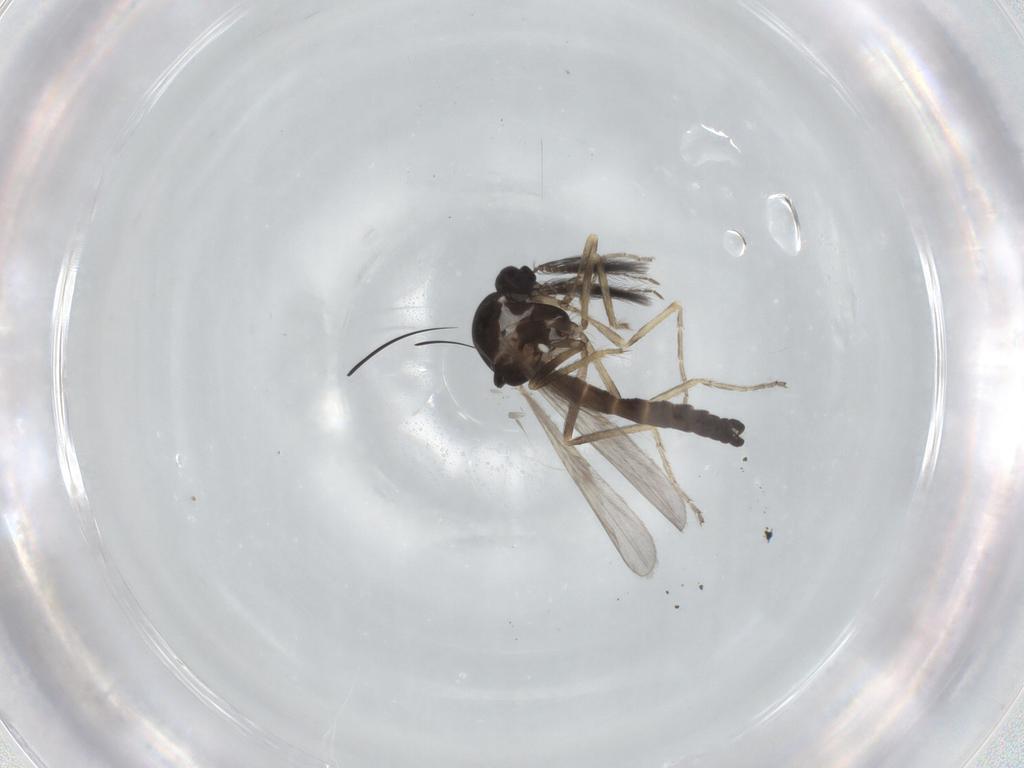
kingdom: Animalia
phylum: Arthropoda
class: Insecta
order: Diptera
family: Ceratopogonidae
